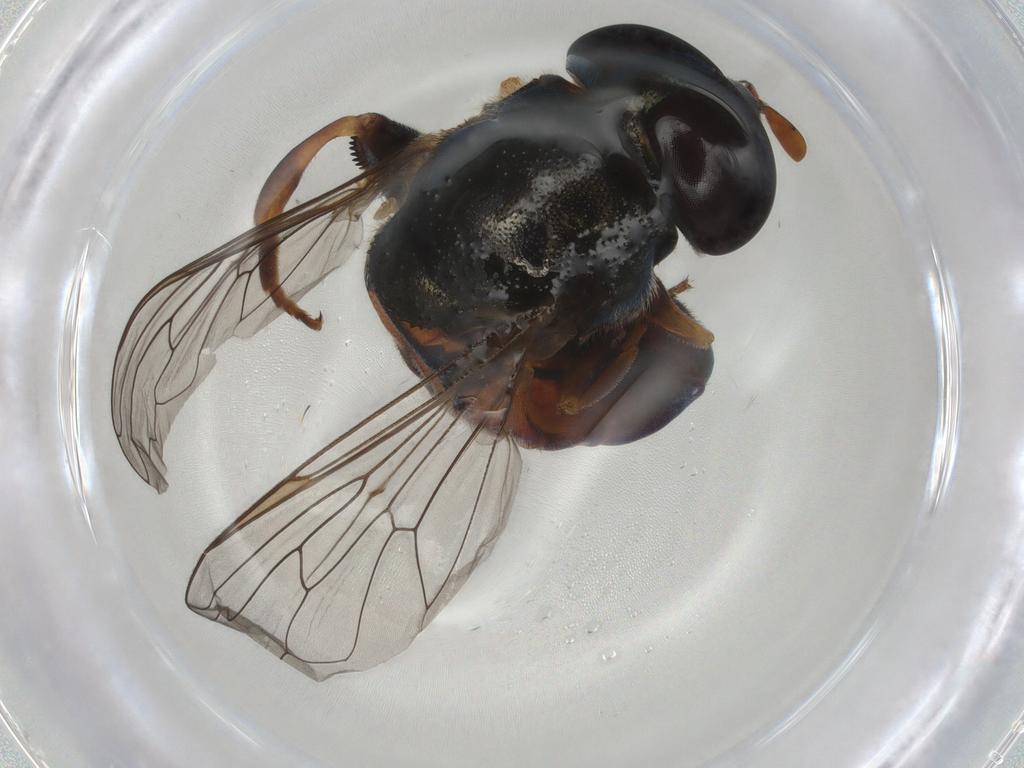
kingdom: Animalia
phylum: Arthropoda
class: Insecta
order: Diptera
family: Syrphidae
